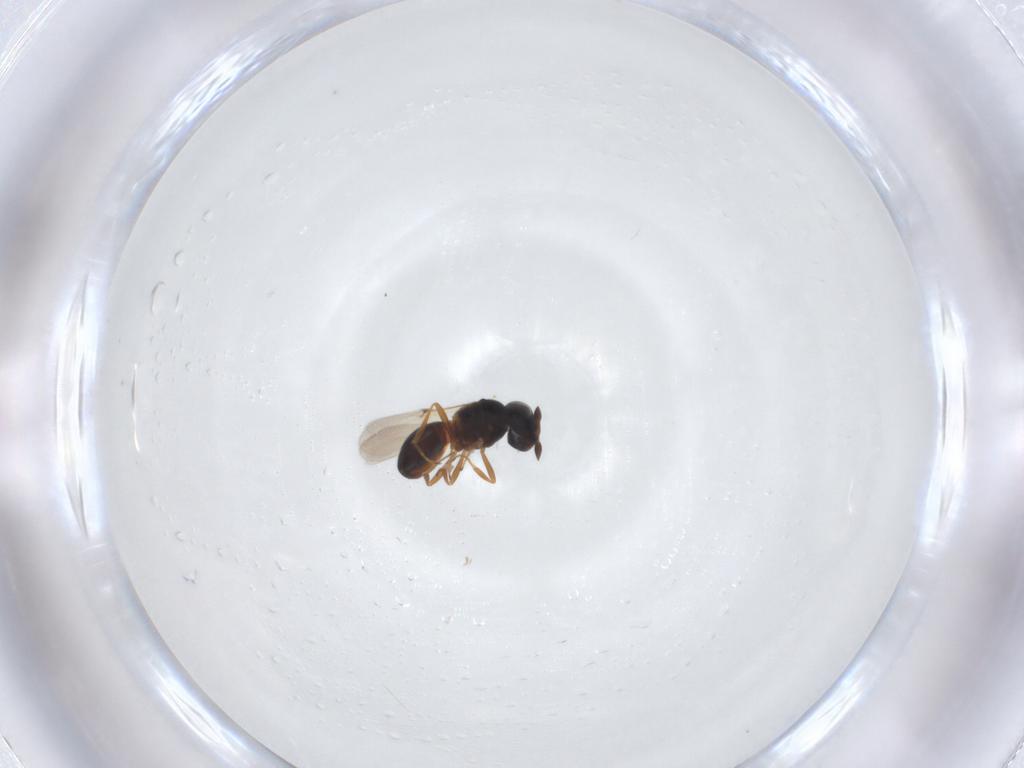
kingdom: Animalia
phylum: Arthropoda
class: Arachnida
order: Araneae
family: Pholcidae
